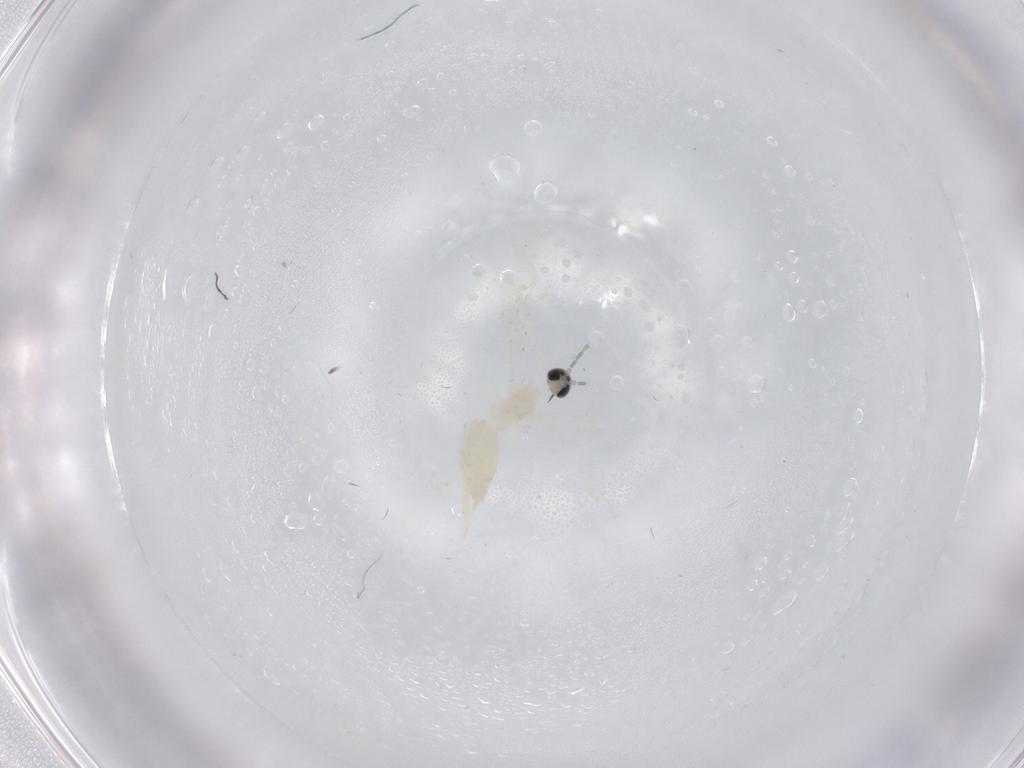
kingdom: Animalia
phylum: Arthropoda
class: Insecta
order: Diptera
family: Cecidomyiidae
